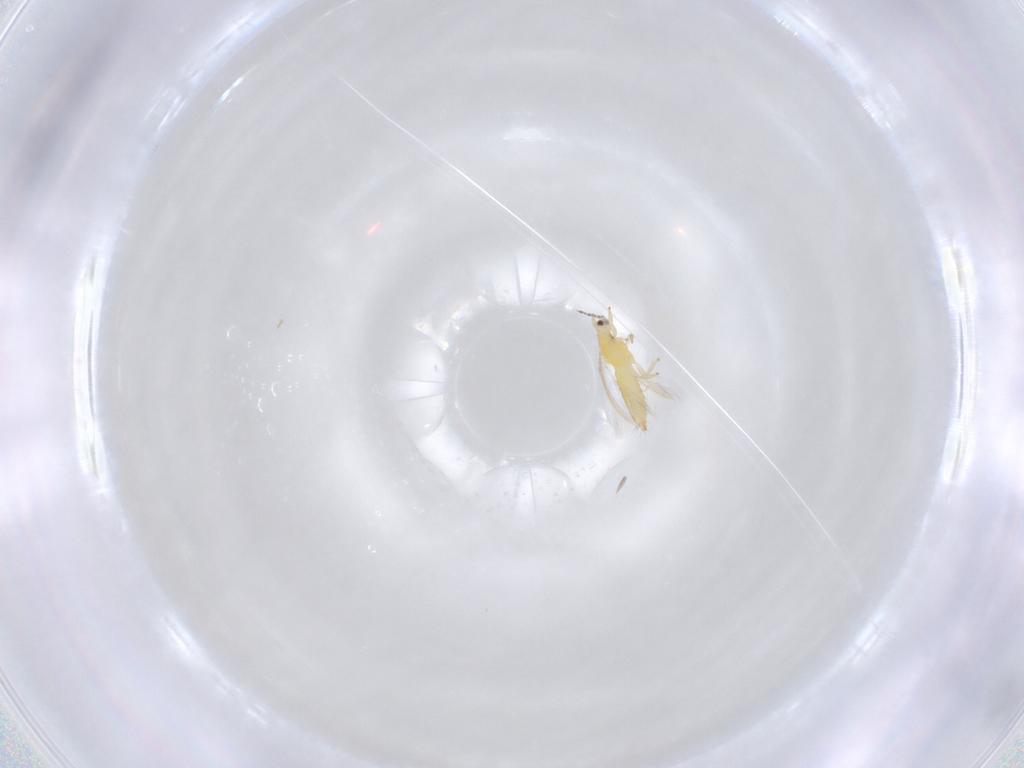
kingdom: Animalia
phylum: Arthropoda
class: Insecta
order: Thysanoptera
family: Thripidae
